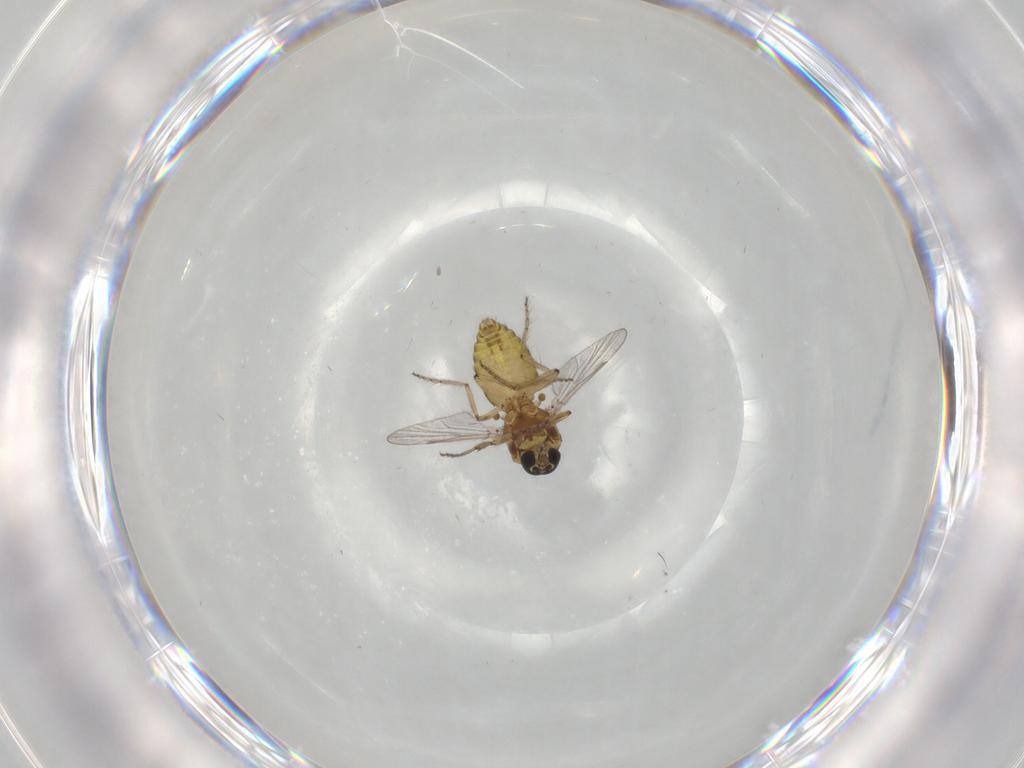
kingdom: Animalia
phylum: Arthropoda
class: Insecta
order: Diptera
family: Ceratopogonidae
